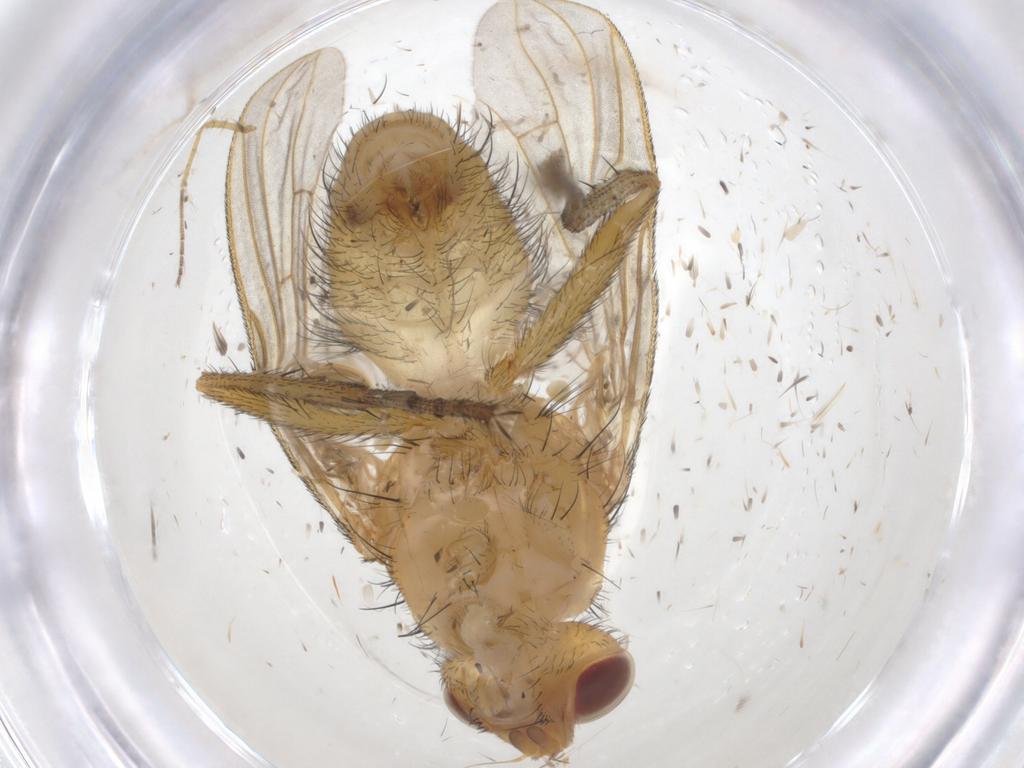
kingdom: Animalia
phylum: Arthropoda
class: Insecta
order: Diptera
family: Tachinidae
